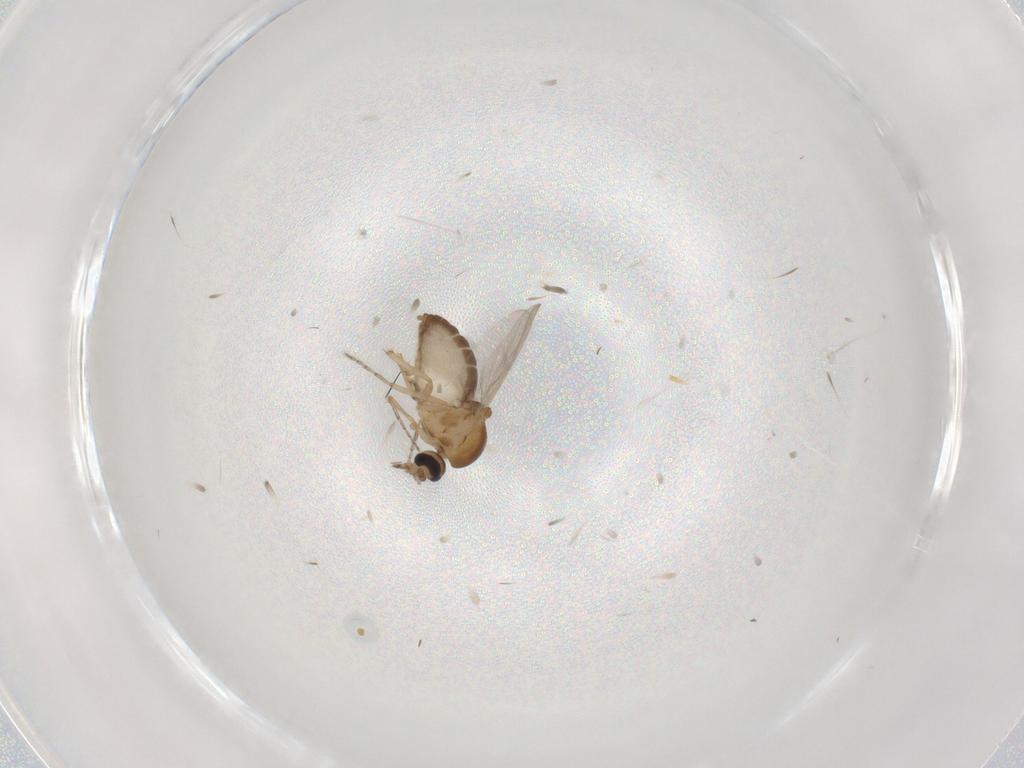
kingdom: Animalia
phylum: Arthropoda
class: Insecta
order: Diptera
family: Ceratopogonidae
